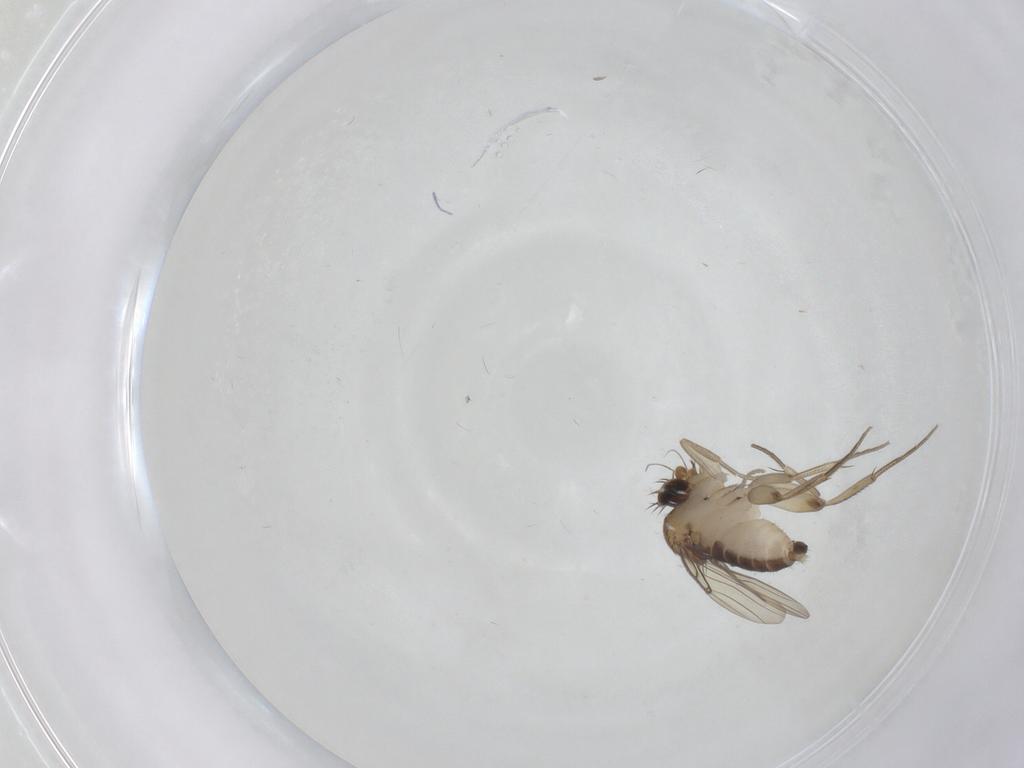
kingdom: Animalia
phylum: Arthropoda
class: Insecta
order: Diptera
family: Phoridae
